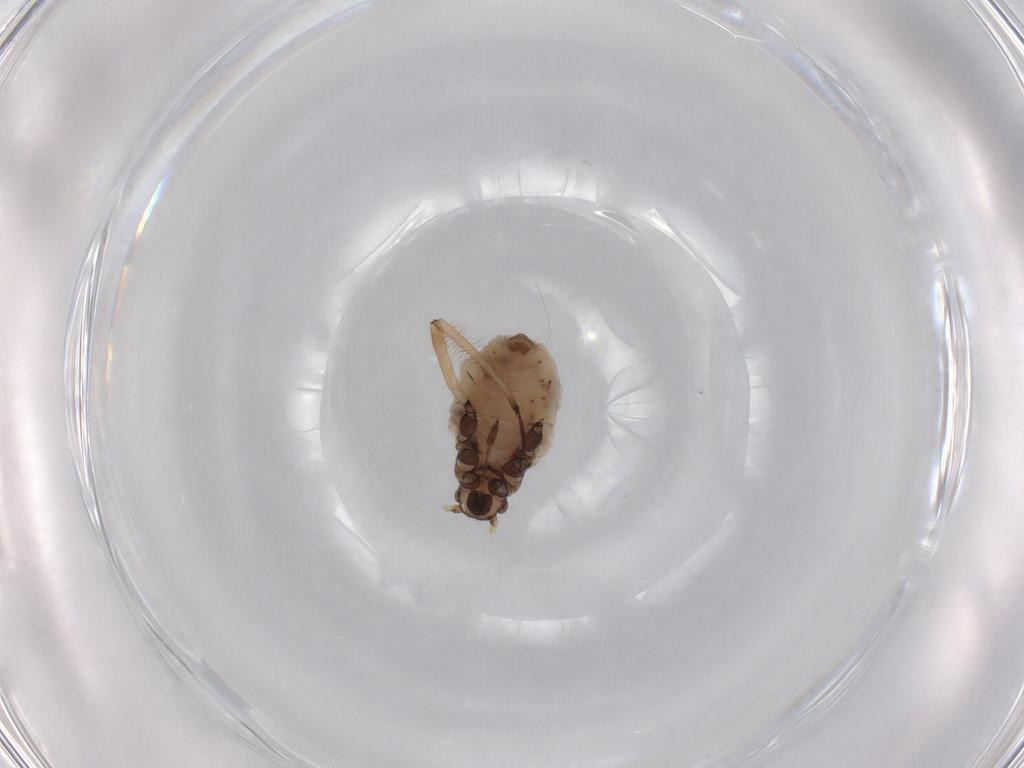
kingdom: Animalia
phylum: Arthropoda
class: Insecta
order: Hemiptera
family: Aphididae
